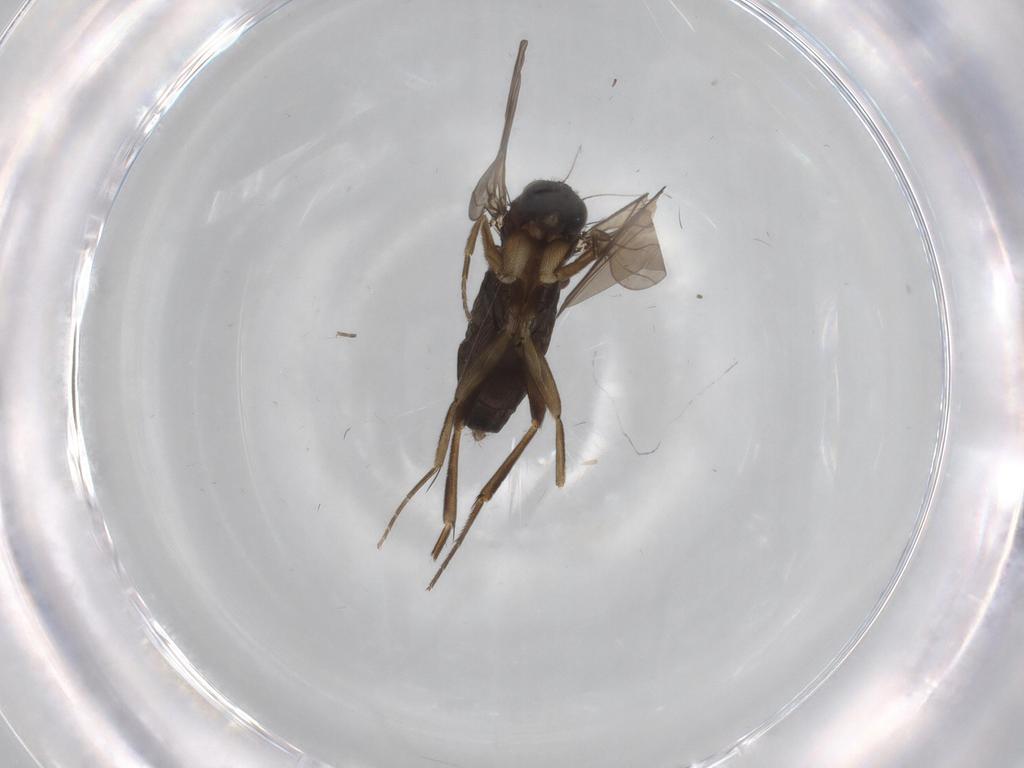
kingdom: Animalia
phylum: Arthropoda
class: Insecta
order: Diptera
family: Phoridae
